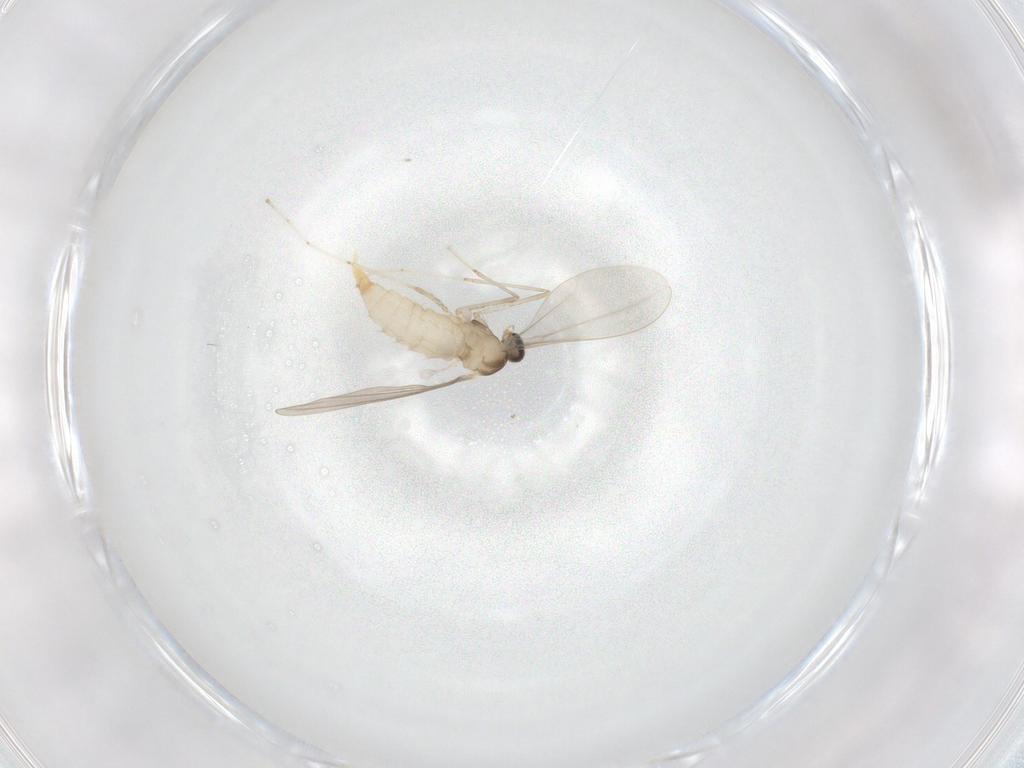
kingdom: Animalia
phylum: Arthropoda
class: Insecta
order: Diptera
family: Cecidomyiidae
